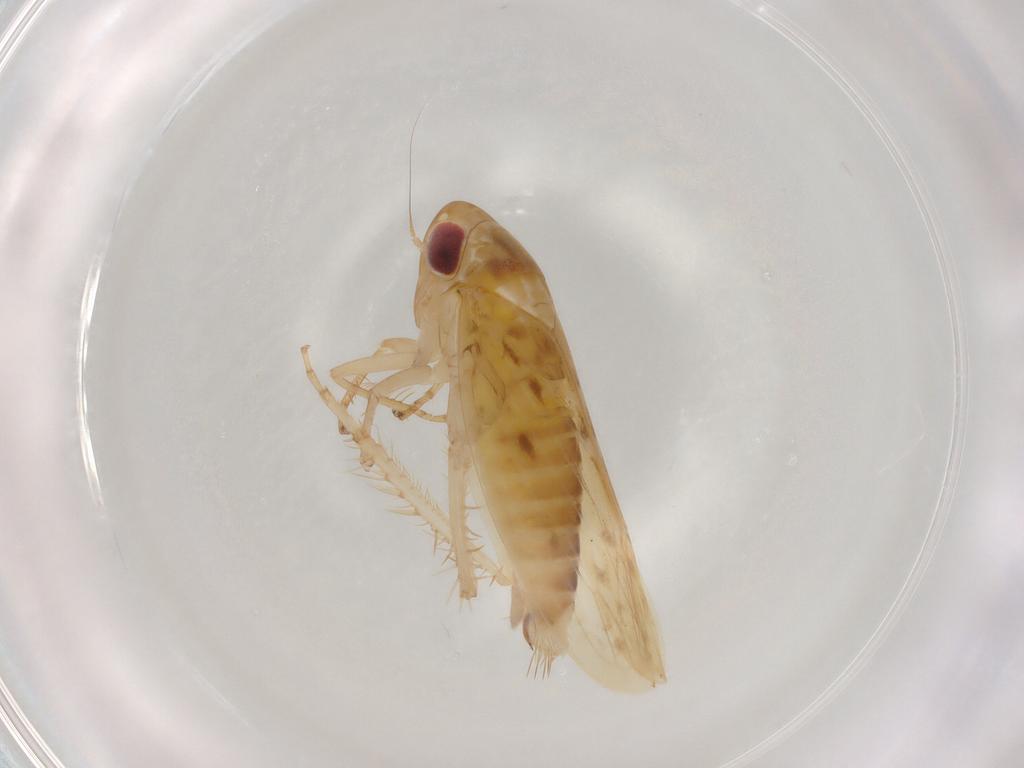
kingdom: Animalia
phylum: Arthropoda
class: Insecta
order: Hemiptera
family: Cicadellidae
